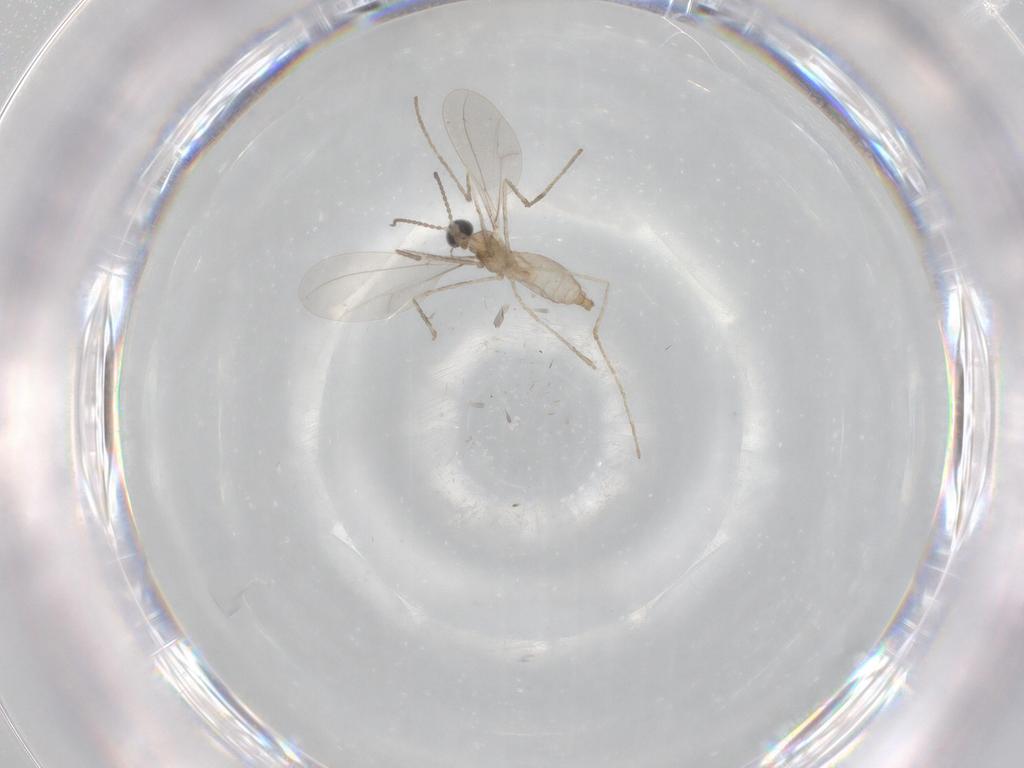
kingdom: Animalia
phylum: Arthropoda
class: Insecta
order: Diptera
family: Cecidomyiidae
